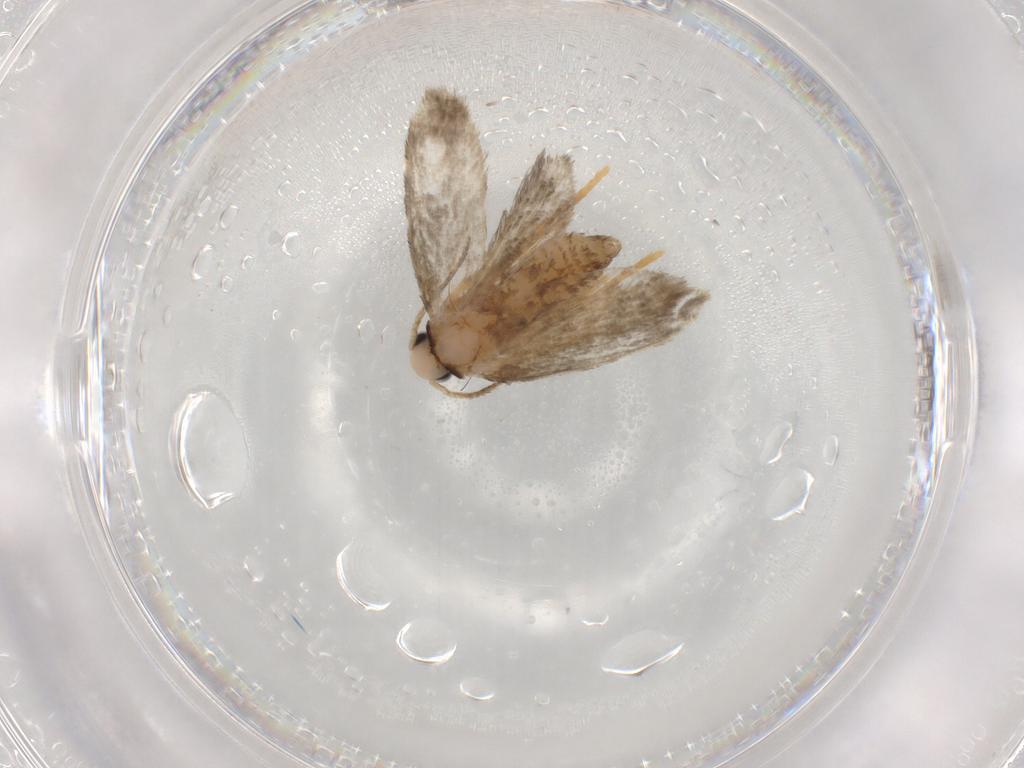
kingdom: Animalia
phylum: Arthropoda
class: Insecta
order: Lepidoptera
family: Psychidae
